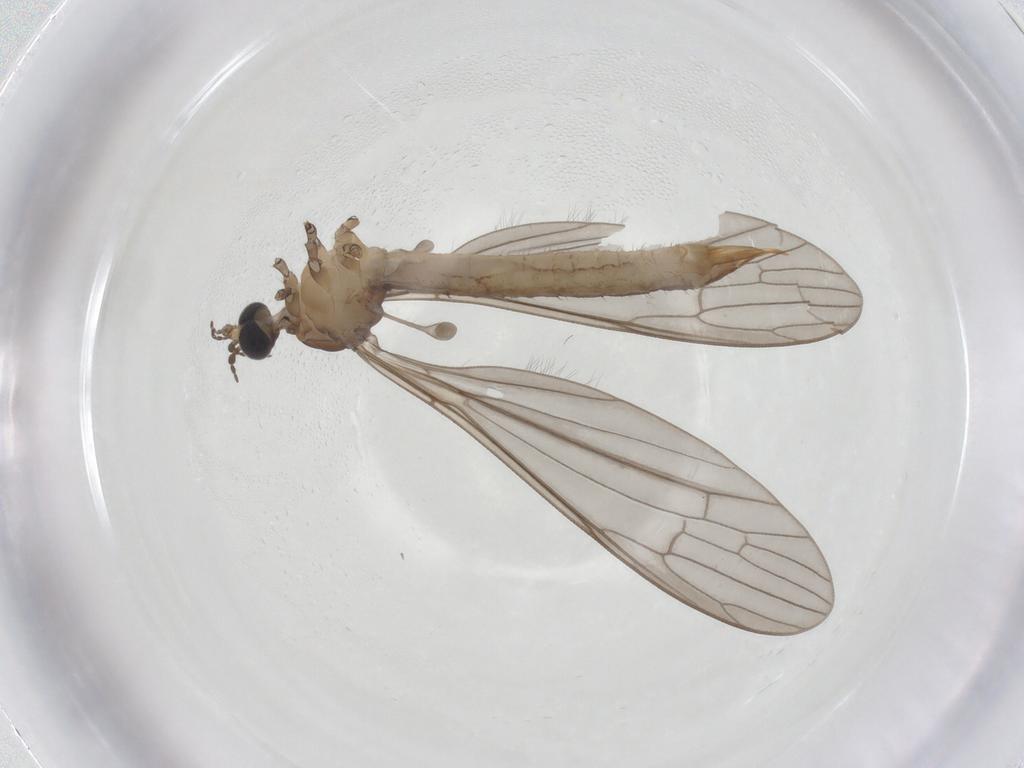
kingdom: Animalia
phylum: Arthropoda
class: Insecta
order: Diptera
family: Limoniidae
